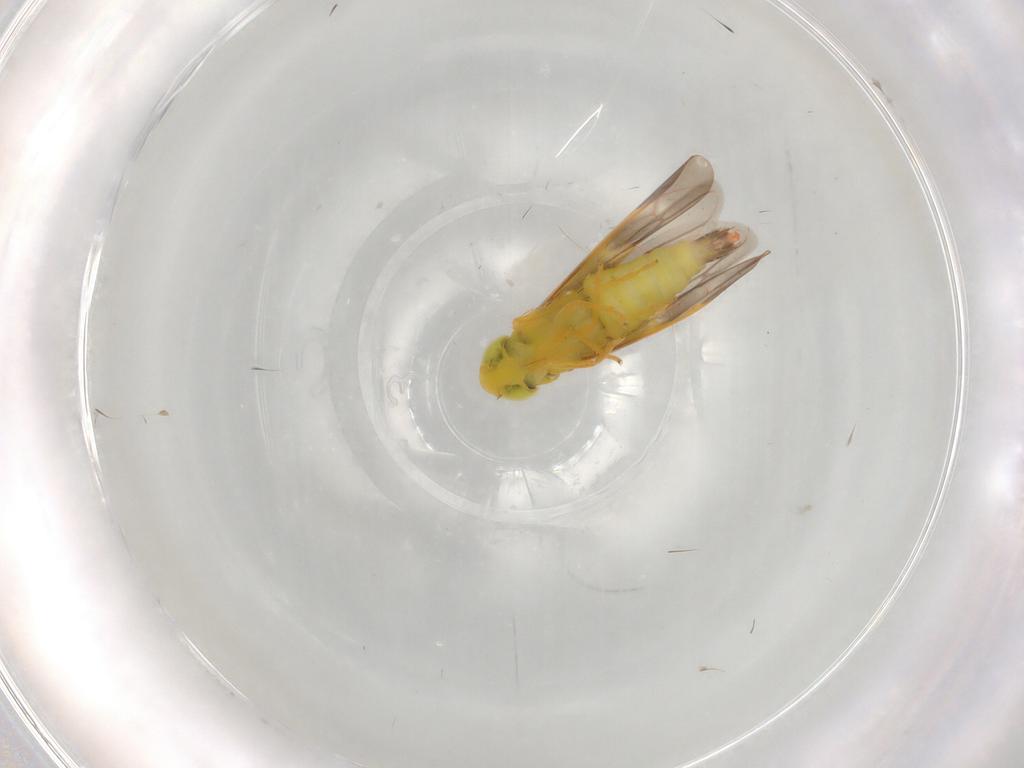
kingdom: Animalia
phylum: Arthropoda
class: Insecta
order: Hemiptera
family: Cicadellidae
